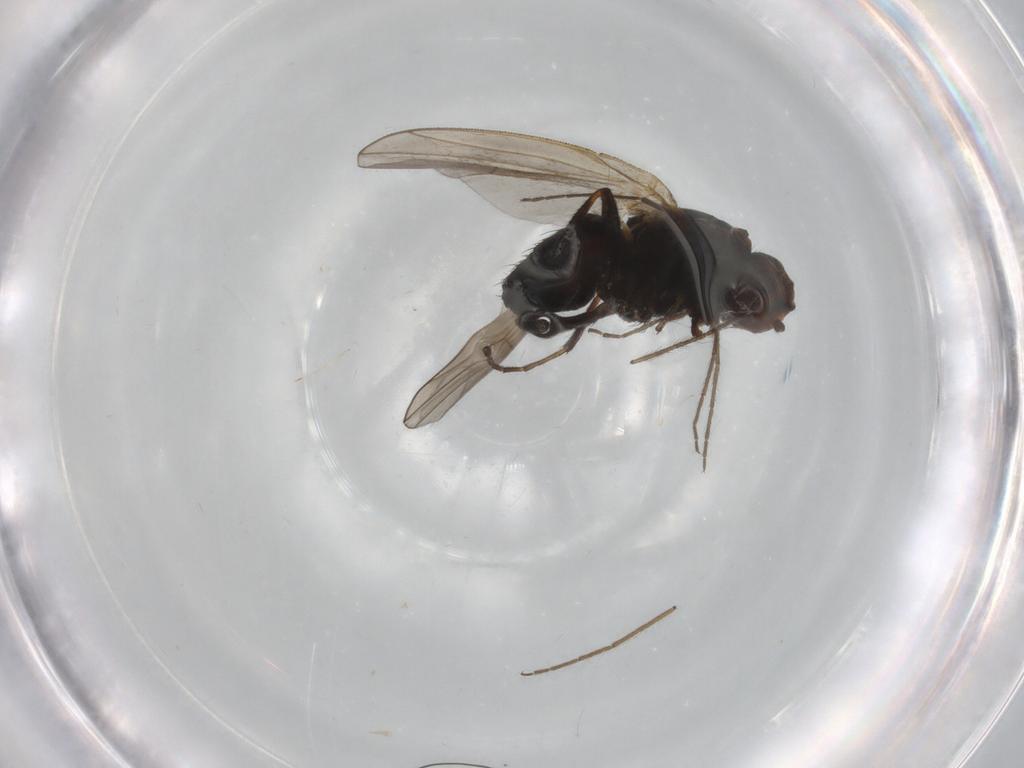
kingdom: Animalia
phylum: Arthropoda
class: Insecta
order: Diptera
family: Heleomyzidae
